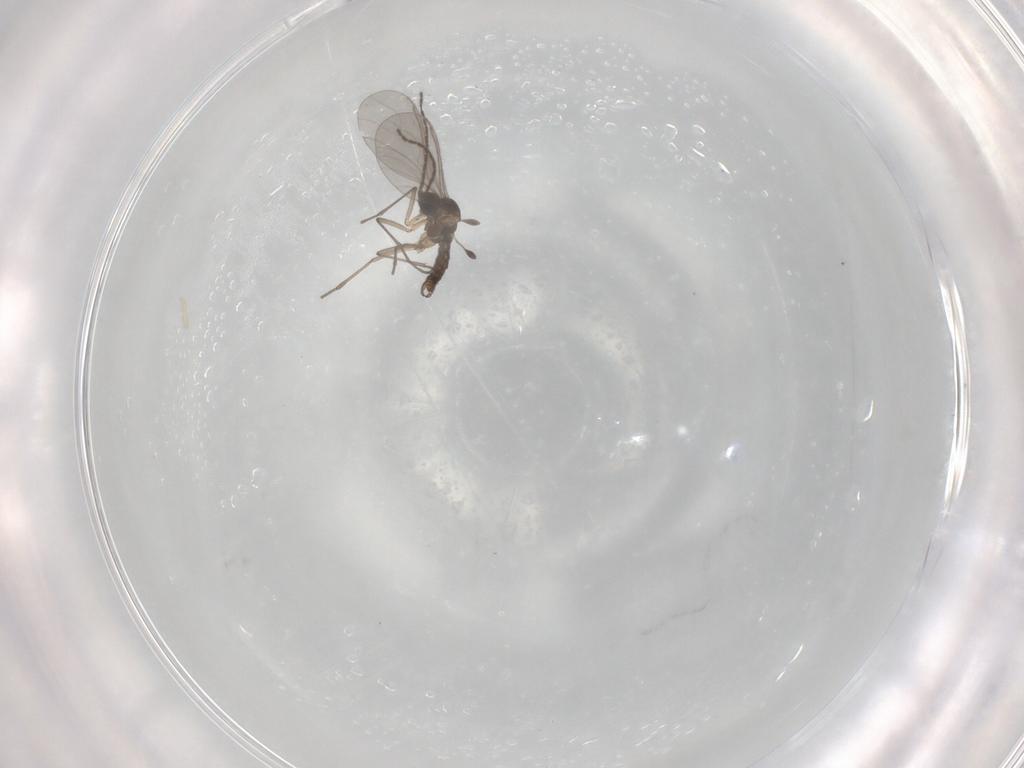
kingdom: Animalia
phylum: Arthropoda
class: Insecta
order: Diptera
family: Sciaridae
